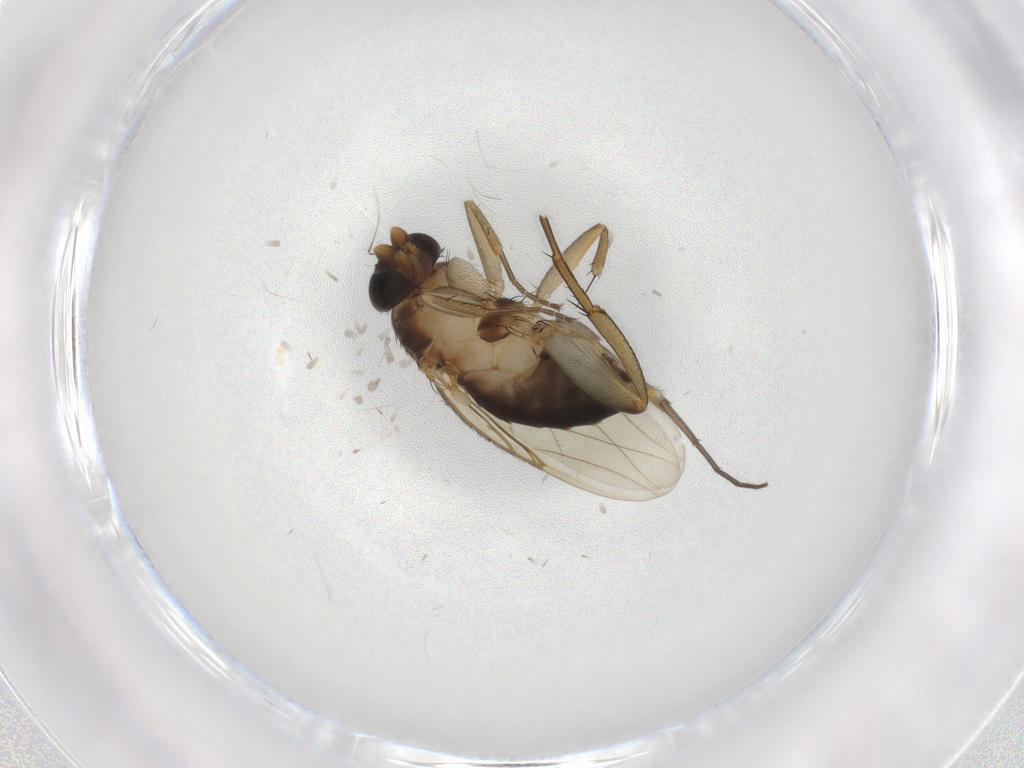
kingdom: Animalia
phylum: Arthropoda
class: Insecta
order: Diptera
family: Phoridae
